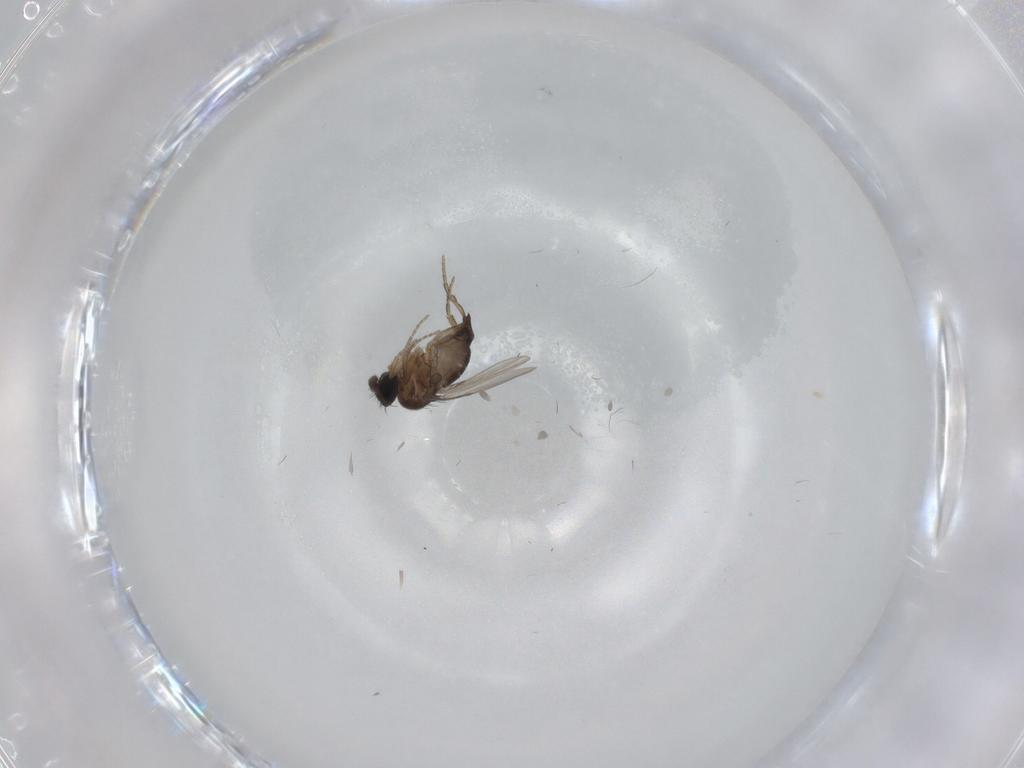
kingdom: Animalia
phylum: Arthropoda
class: Insecta
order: Diptera
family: Phoridae
